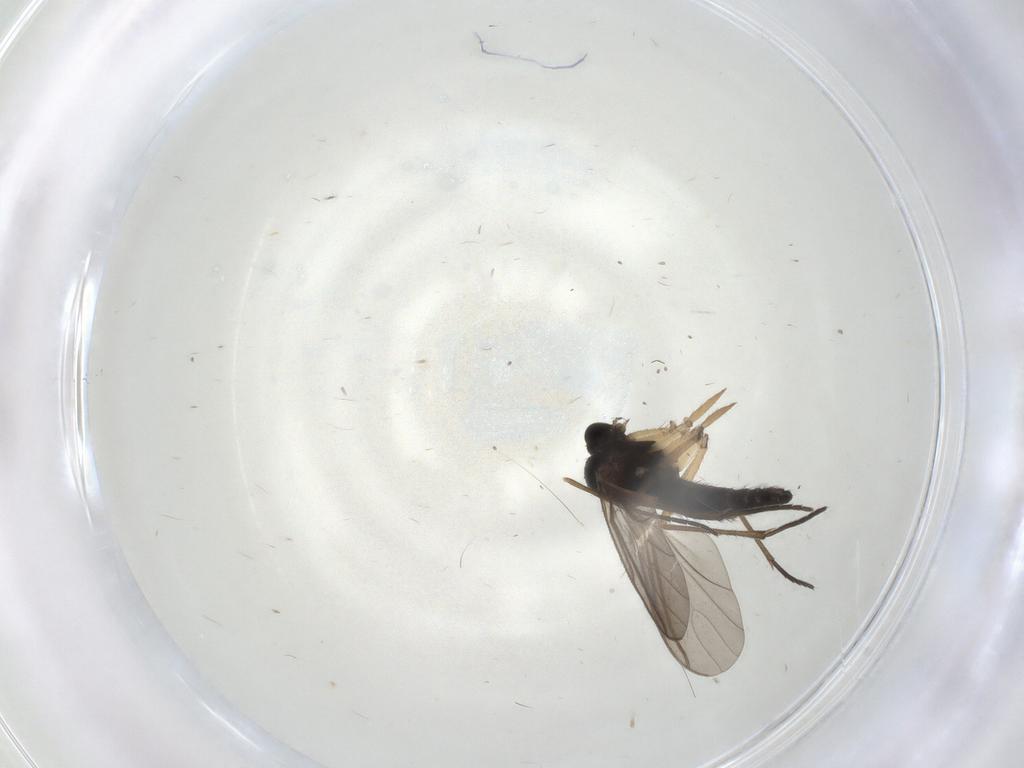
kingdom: Animalia
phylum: Arthropoda
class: Insecta
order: Diptera
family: Sciaridae
